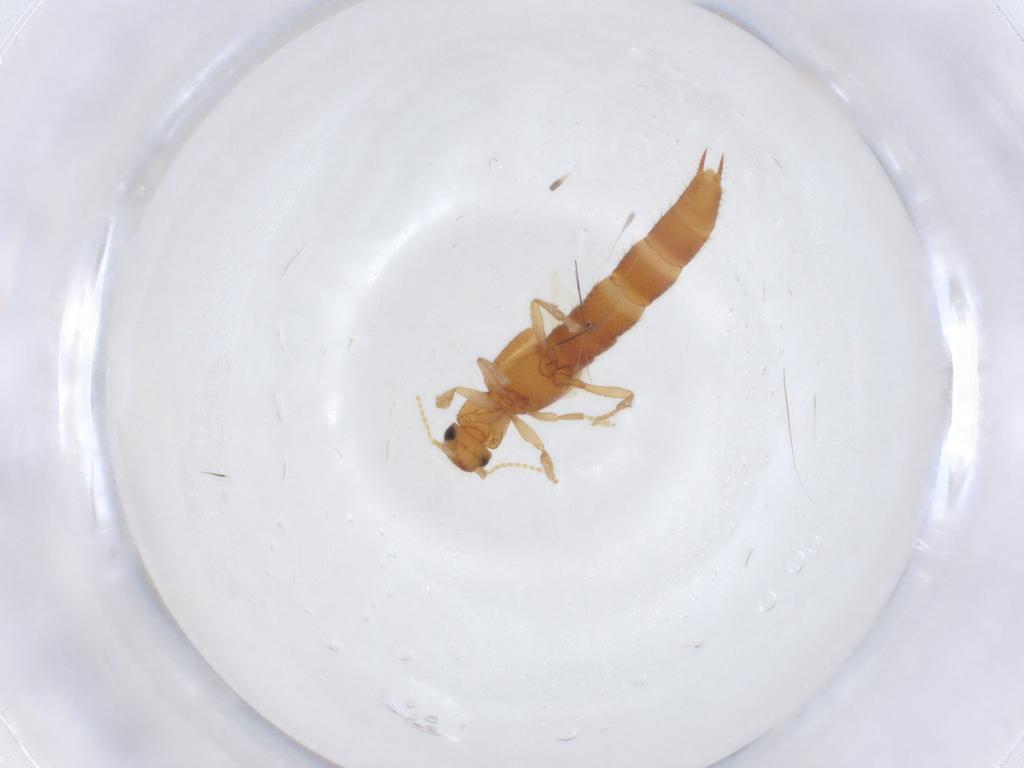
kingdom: Animalia
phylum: Arthropoda
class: Insecta
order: Coleoptera
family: Staphylinidae
